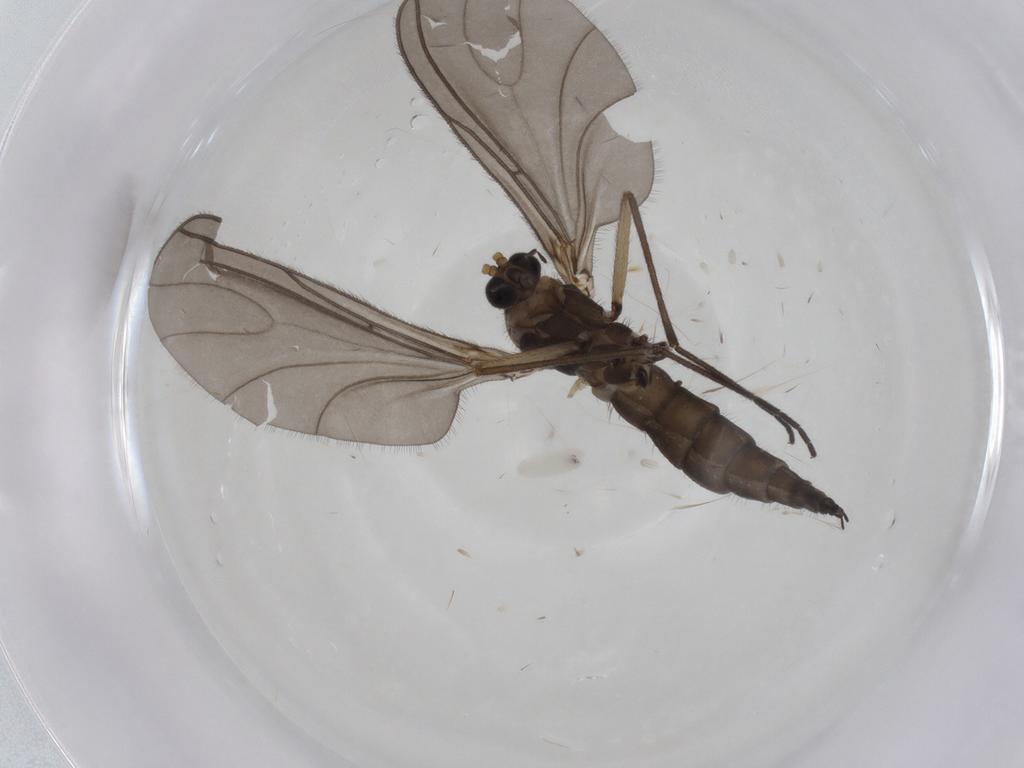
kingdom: Animalia
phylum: Arthropoda
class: Insecta
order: Diptera
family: Sciaridae
